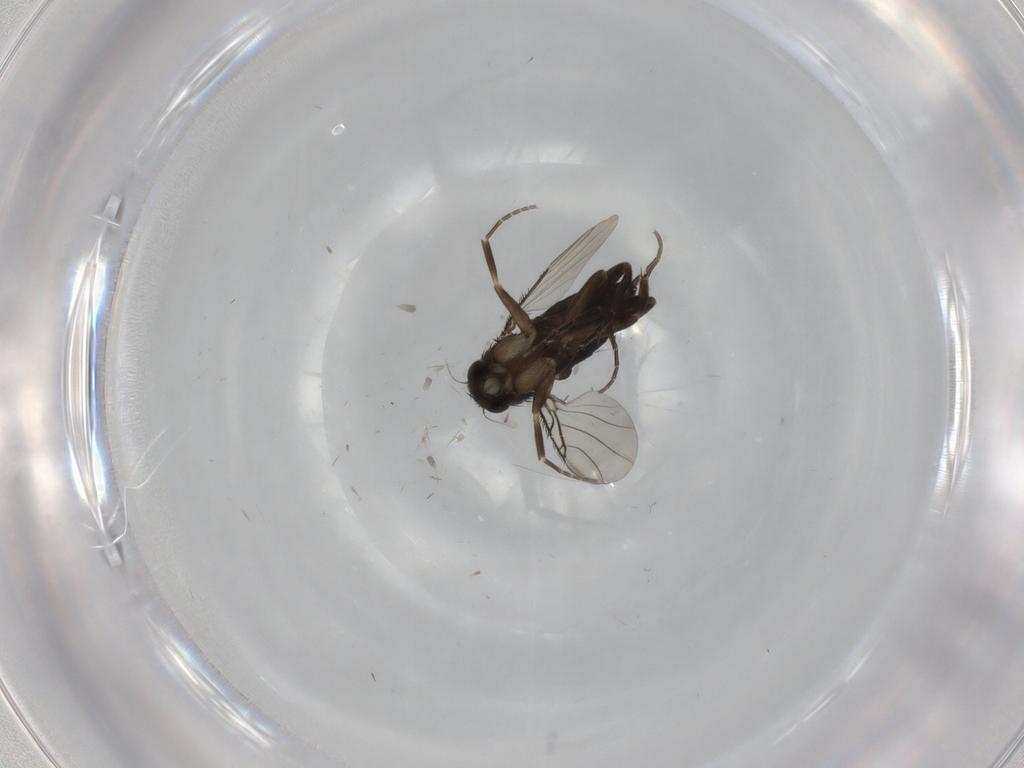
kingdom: Animalia
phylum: Arthropoda
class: Insecta
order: Diptera
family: Phoridae
